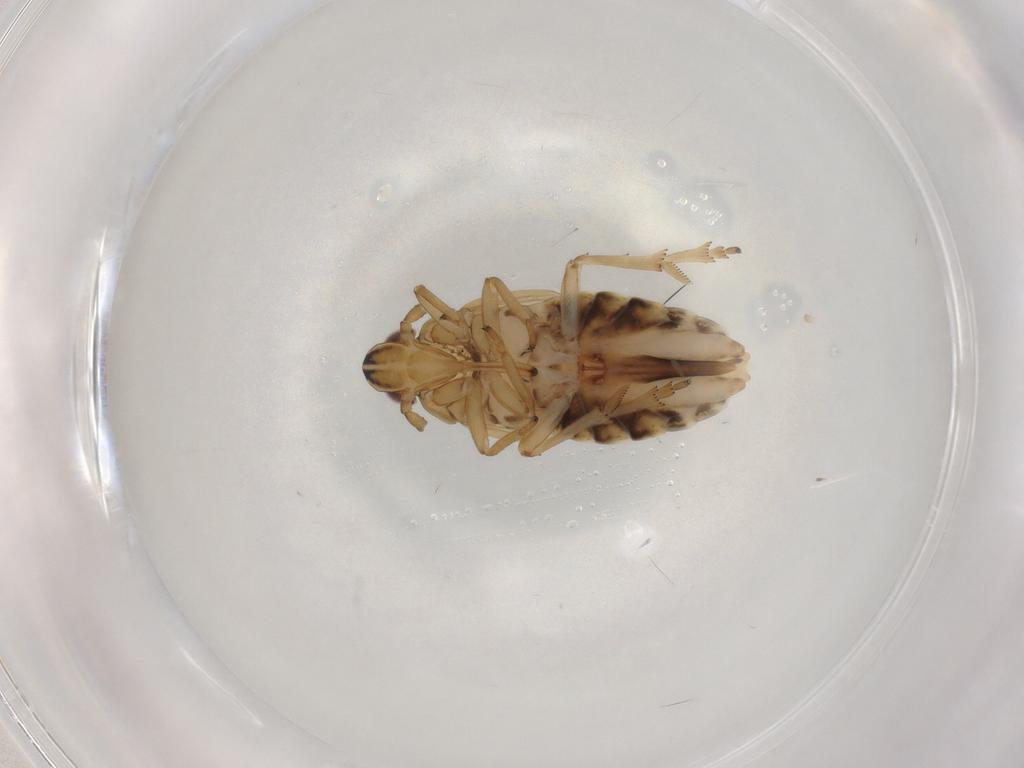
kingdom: Animalia
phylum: Arthropoda
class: Insecta
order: Hemiptera
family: Delphacidae
